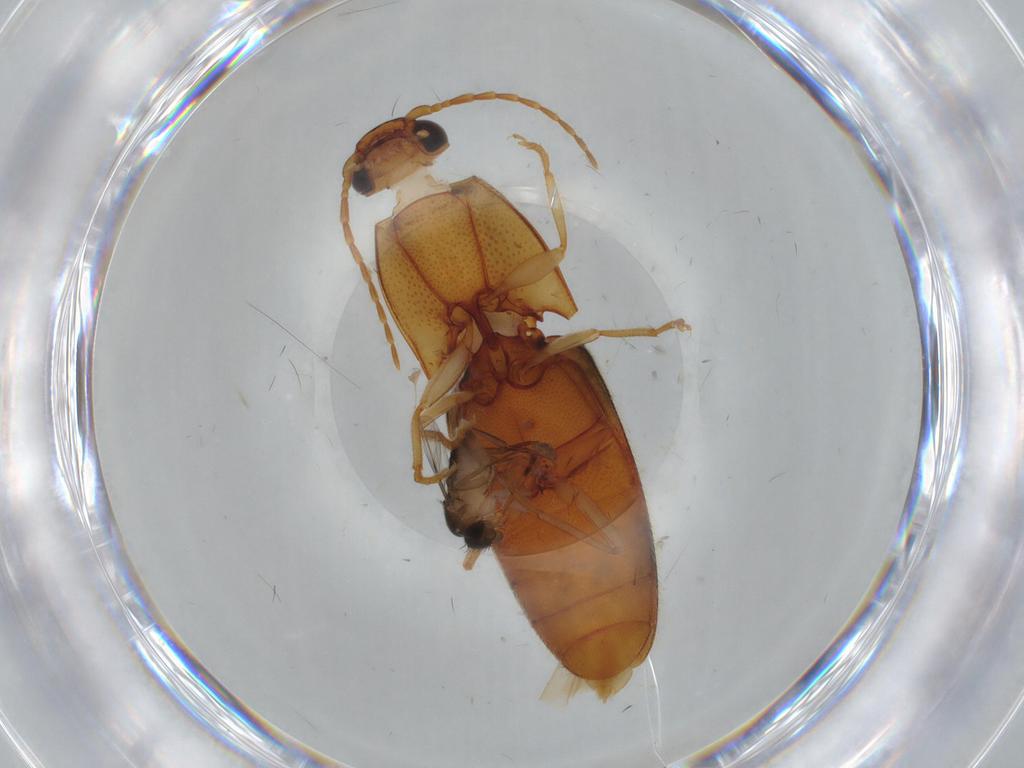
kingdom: Animalia
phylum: Arthropoda
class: Insecta
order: Coleoptera
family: Elateridae
